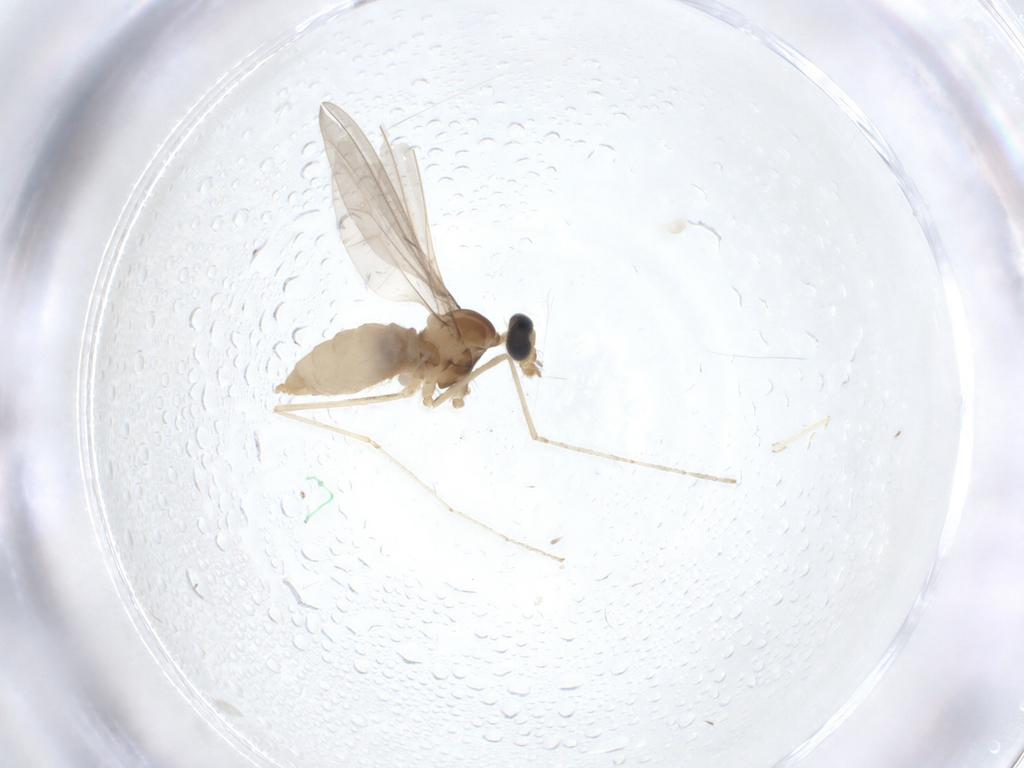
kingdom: Animalia
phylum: Arthropoda
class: Insecta
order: Diptera
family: Cecidomyiidae
